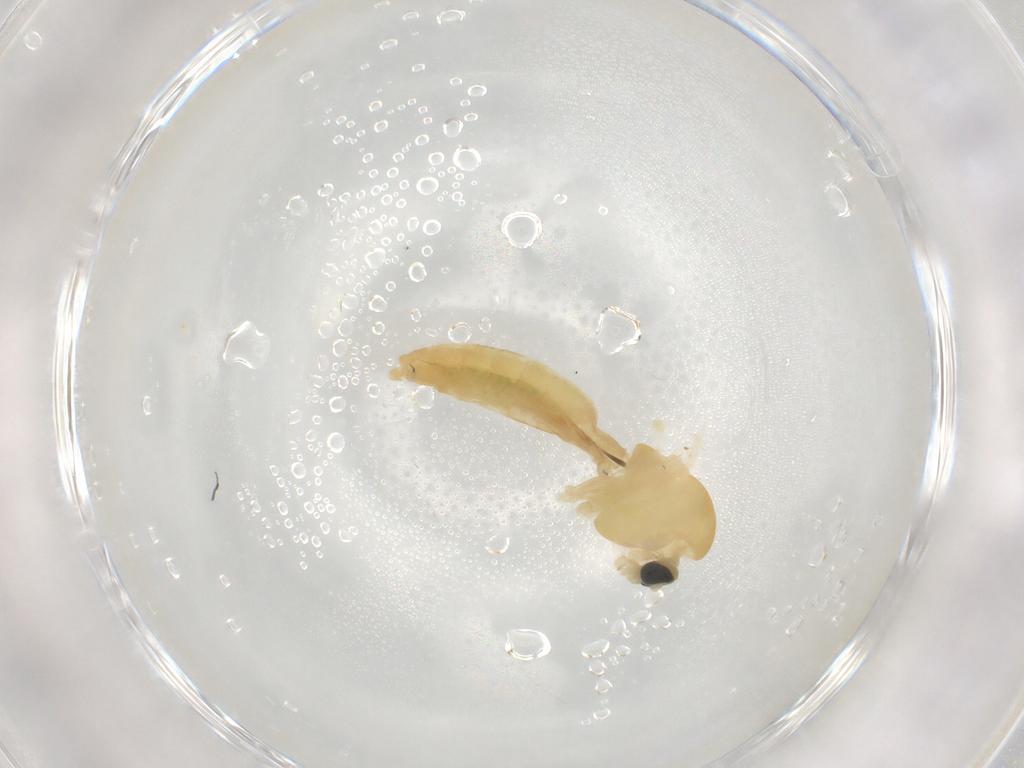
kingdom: Animalia
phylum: Arthropoda
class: Insecta
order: Diptera
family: Chironomidae
